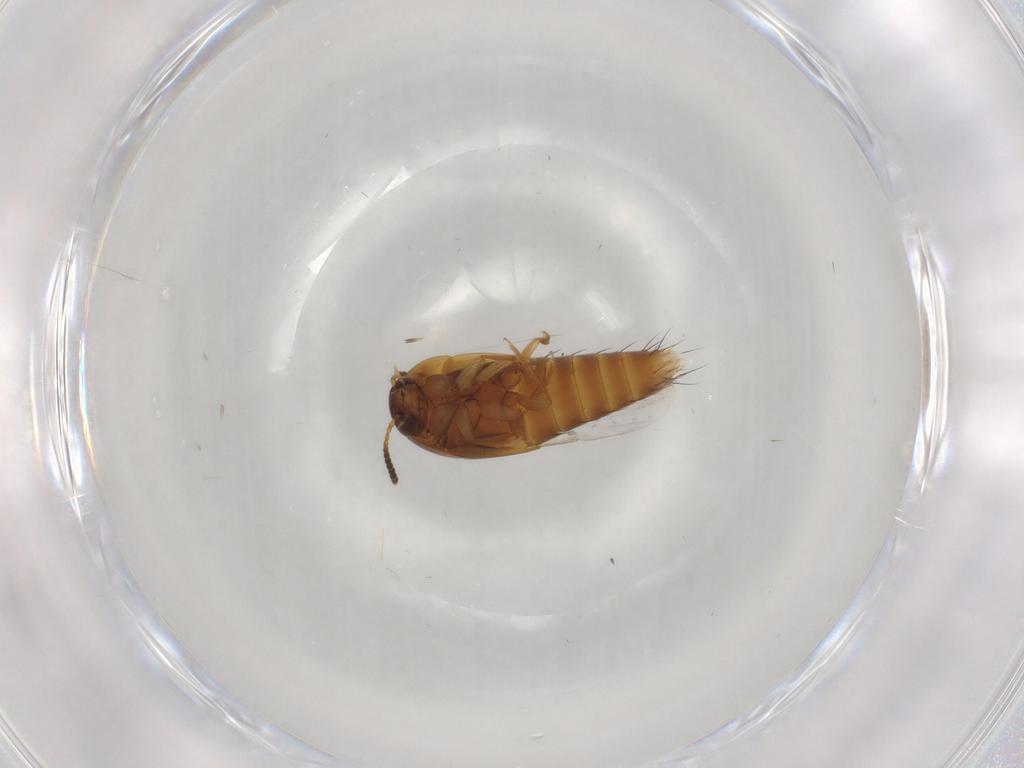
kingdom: Animalia
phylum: Arthropoda
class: Insecta
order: Coleoptera
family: Staphylinidae
